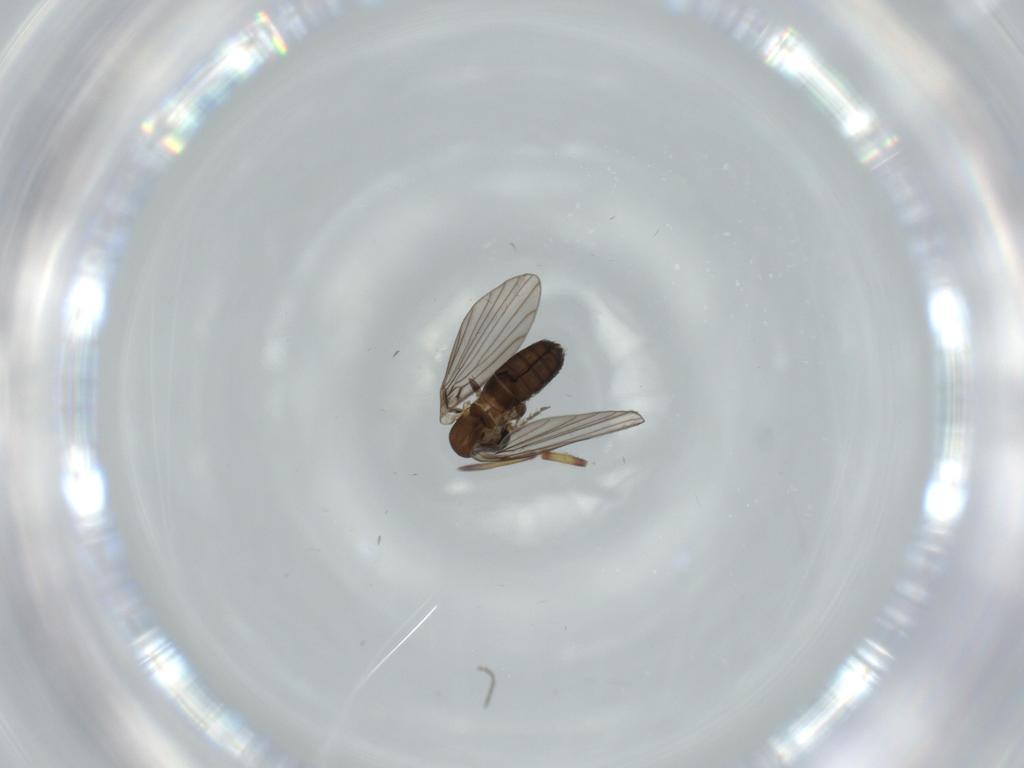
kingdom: Animalia
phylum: Arthropoda
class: Insecta
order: Diptera
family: Psychodidae
